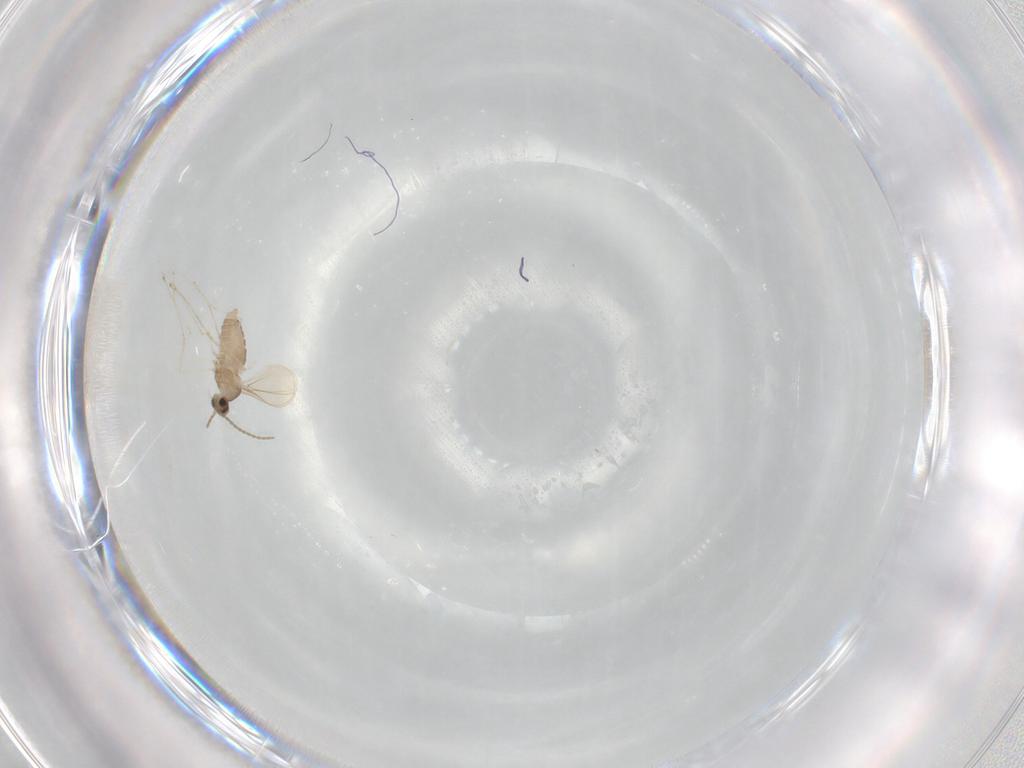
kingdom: Animalia
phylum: Arthropoda
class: Insecta
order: Diptera
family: Cecidomyiidae
